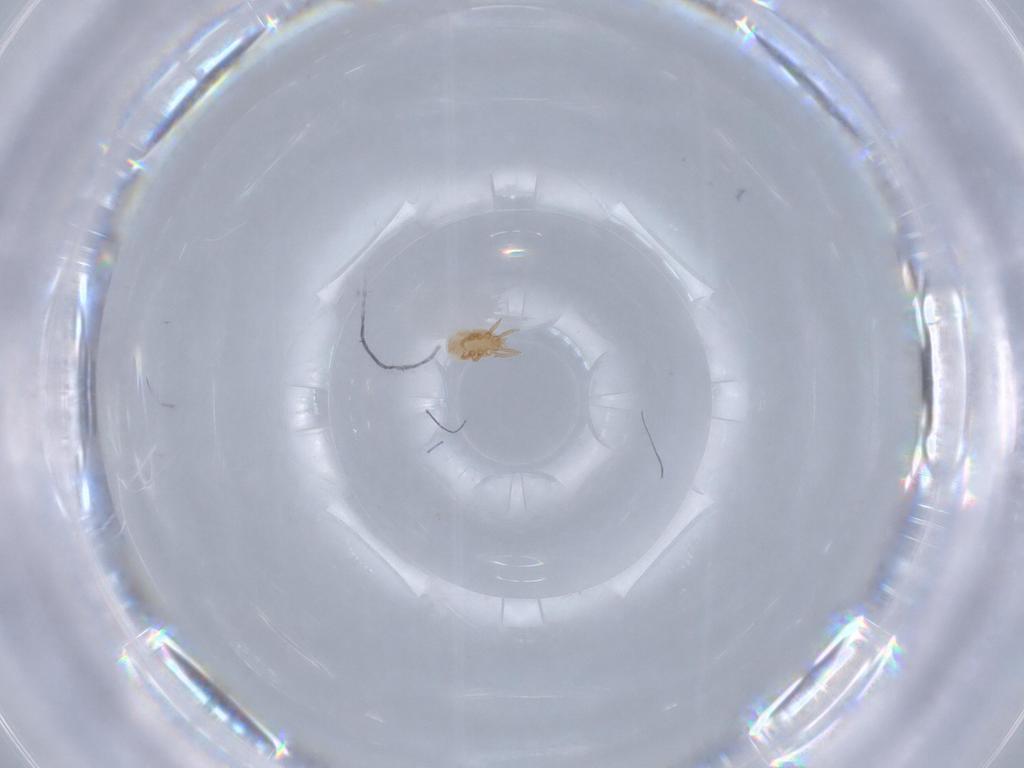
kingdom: Animalia
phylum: Arthropoda
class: Arachnida
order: Mesostigmata
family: Dinychidae
